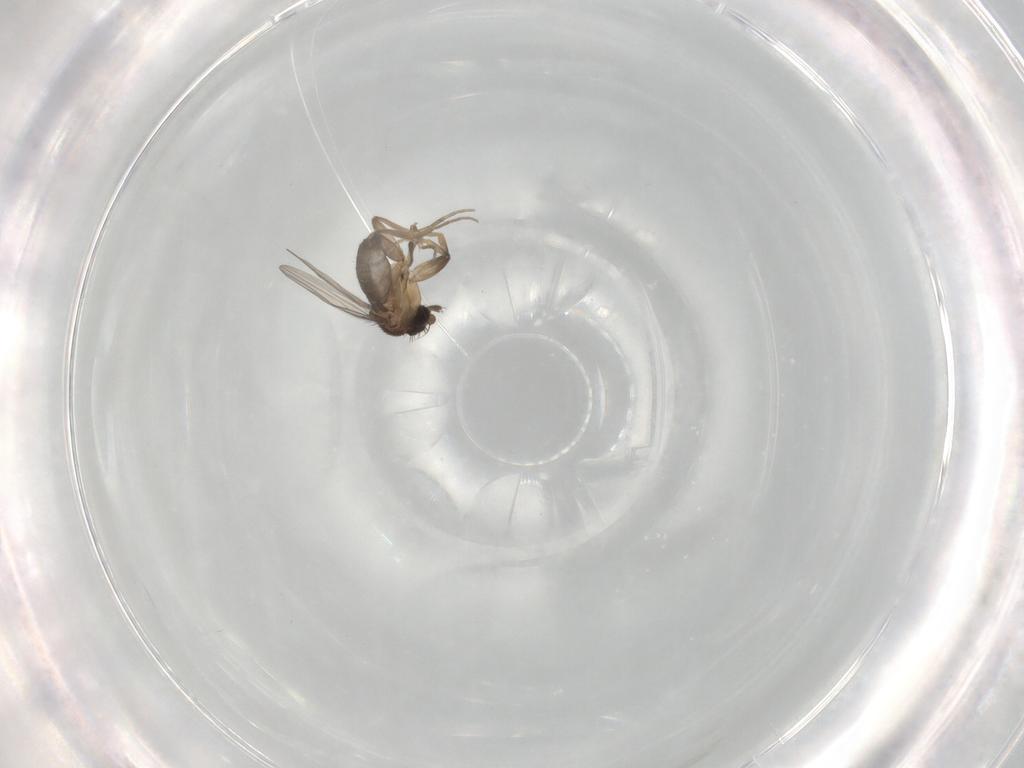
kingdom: Animalia
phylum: Arthropoda
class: Insecta
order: Diptera
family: Phoridae
